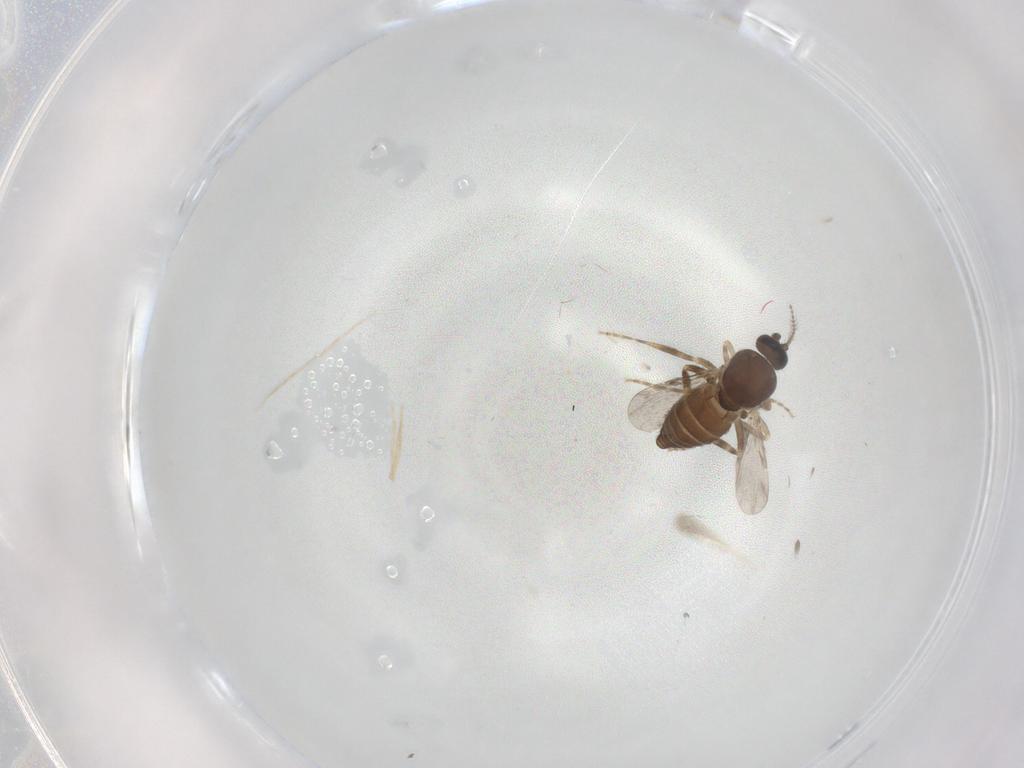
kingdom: Animalia
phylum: Arthropoda
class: Insecta
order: Diptera
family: Ceratopogonidae
